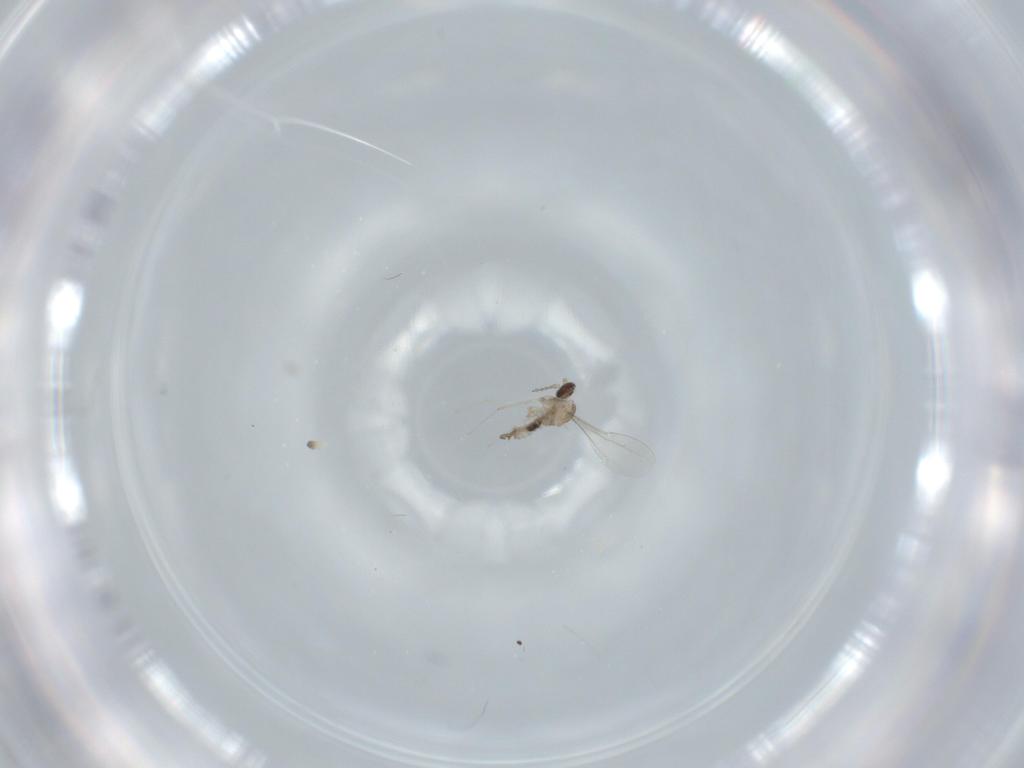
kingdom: Animalia
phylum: Arthropoda
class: Insecta
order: Diptera
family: Cecidomyiidae
